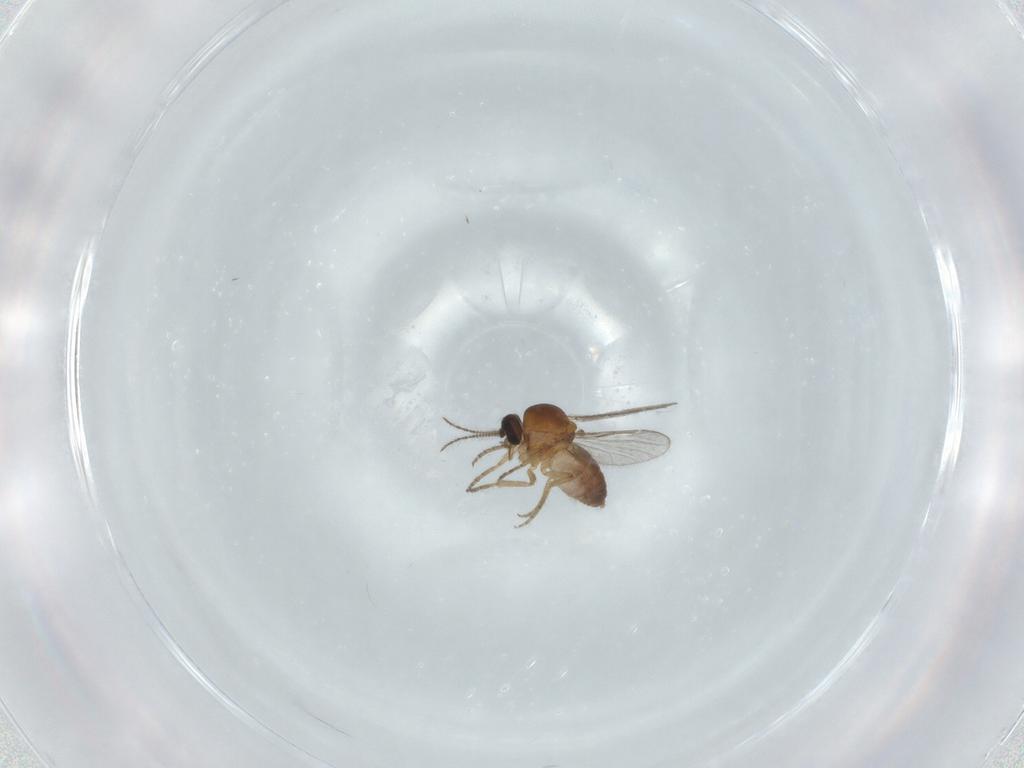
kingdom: Animalia
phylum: Arthropoda
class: Insecta
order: Diptera
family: Ceratopogonidae
